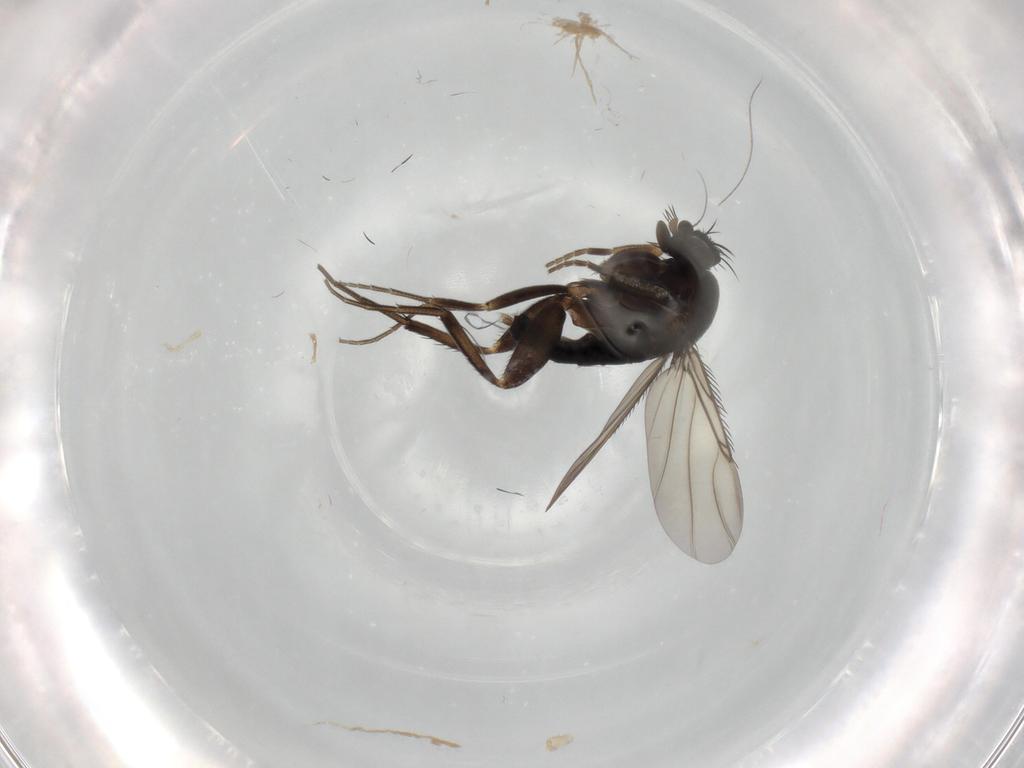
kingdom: Animalia
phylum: Arthropoda
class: Insecta
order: Diptera
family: Phoridae
